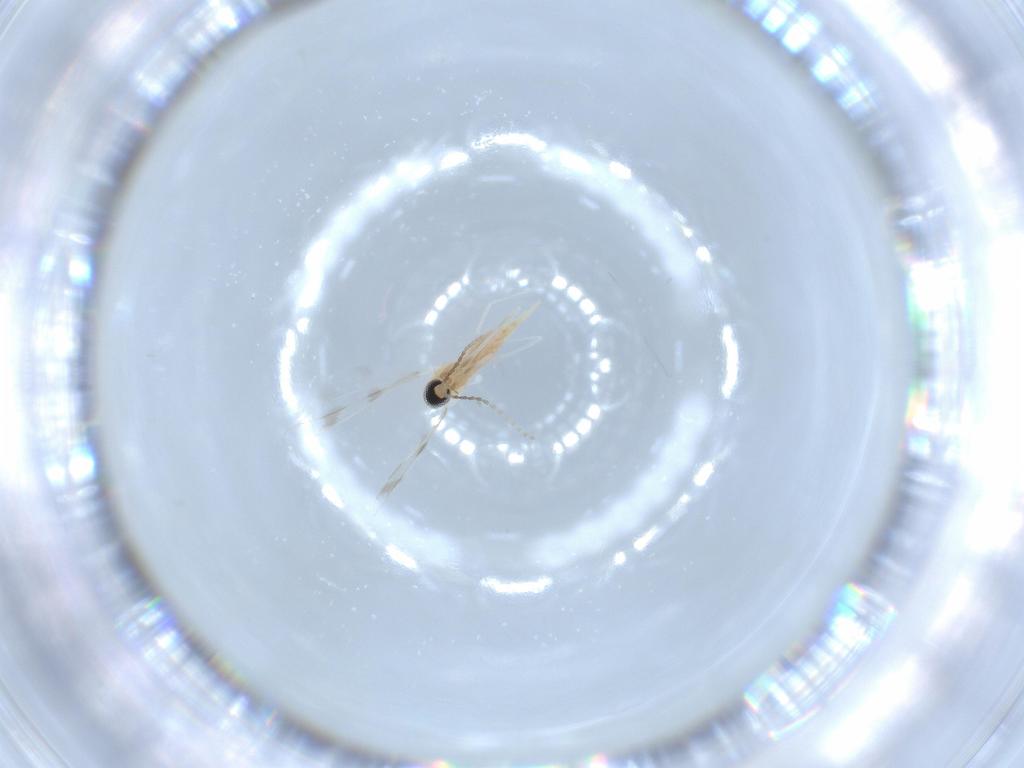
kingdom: Animalia
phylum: Arthropoda
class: Insecta
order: Diptera
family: Cecidomyiidae
